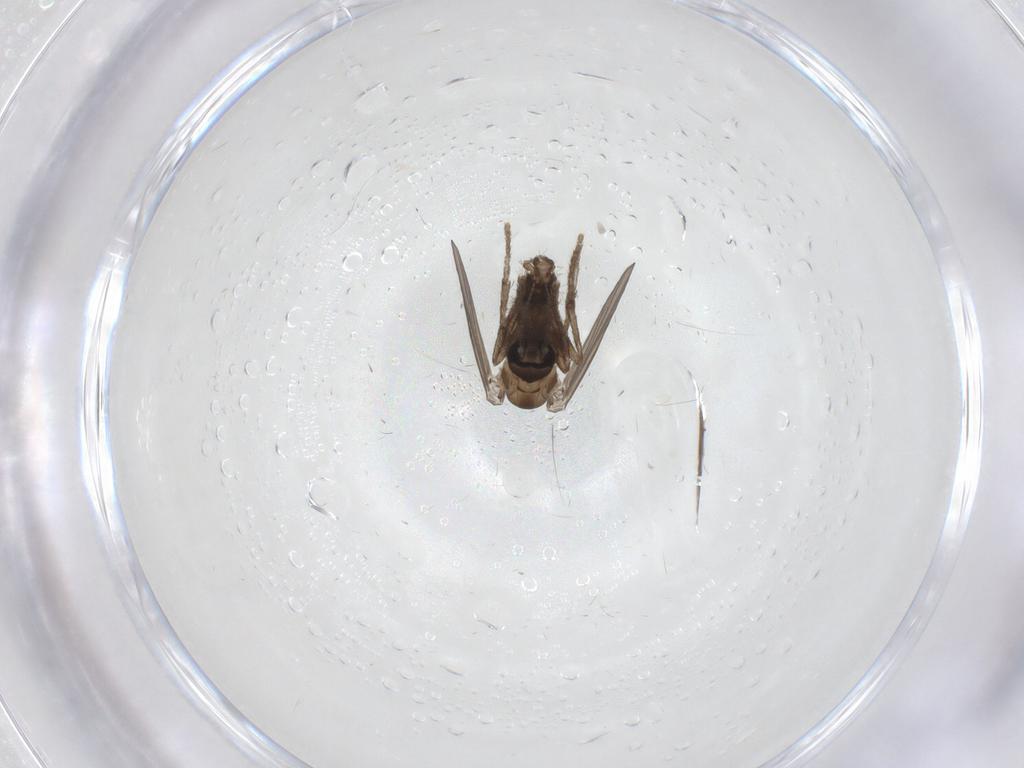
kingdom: Animalia
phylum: Arthropoda
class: Insecta
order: Diptera
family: Psychodidae
